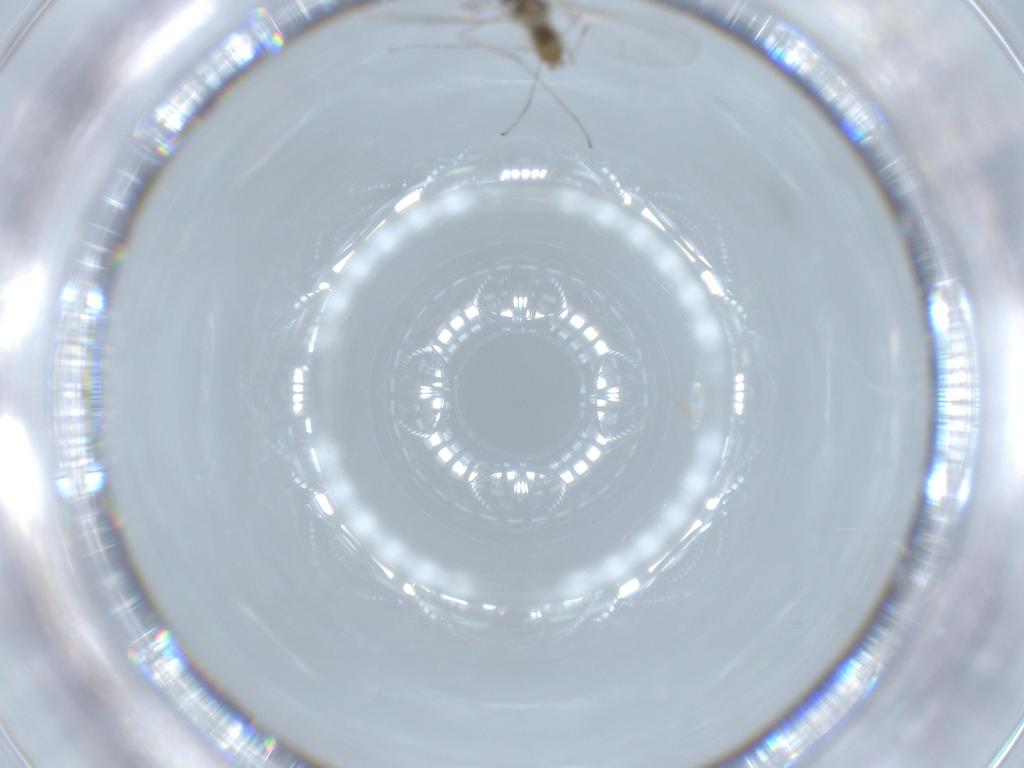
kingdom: Animalia
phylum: Arthropoda
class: Insecta
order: Diptera
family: Cecidomyiidae
